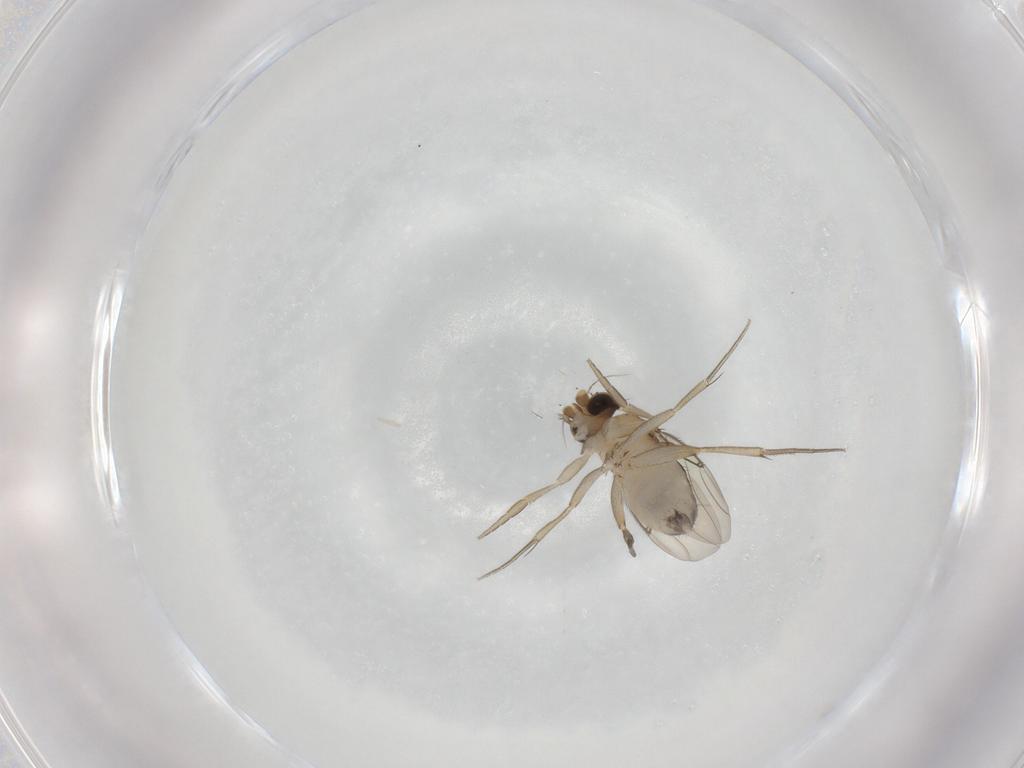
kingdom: Animalia
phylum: Arthropoda
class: Insecta
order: Diptera
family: Phoridae
